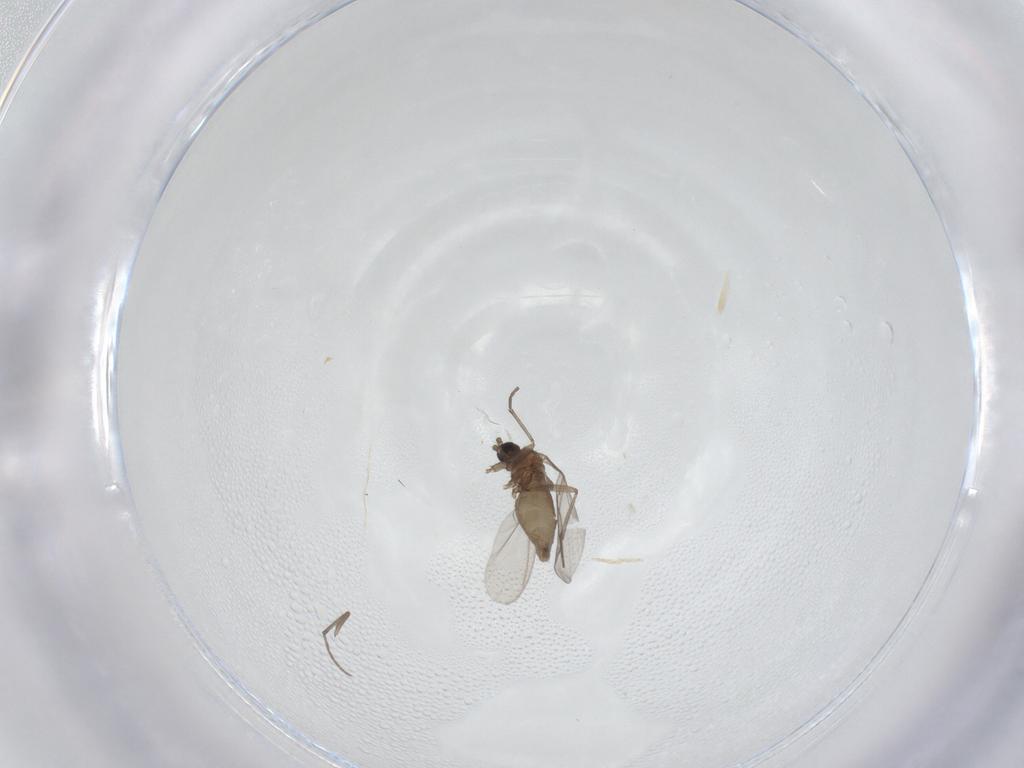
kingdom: Animalia
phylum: Arthropoda
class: Insecta
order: Diptera
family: Sciaridae
